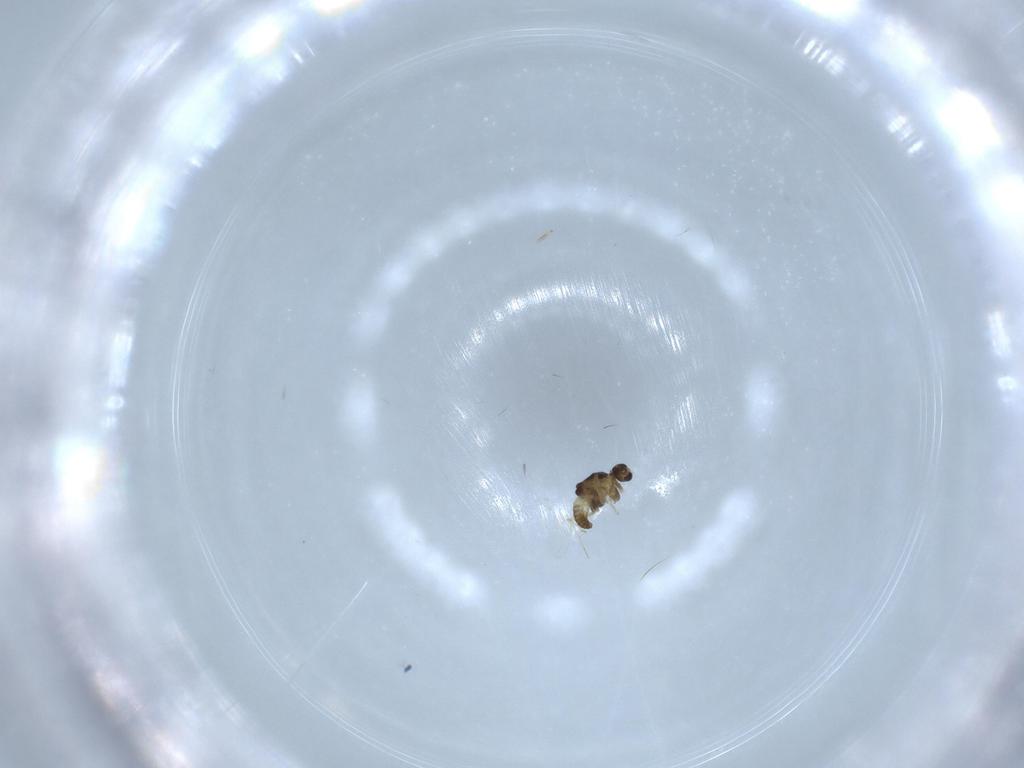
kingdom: Animalia
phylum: Arthropoda
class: Insecta
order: Diptera
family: Chironomidae
